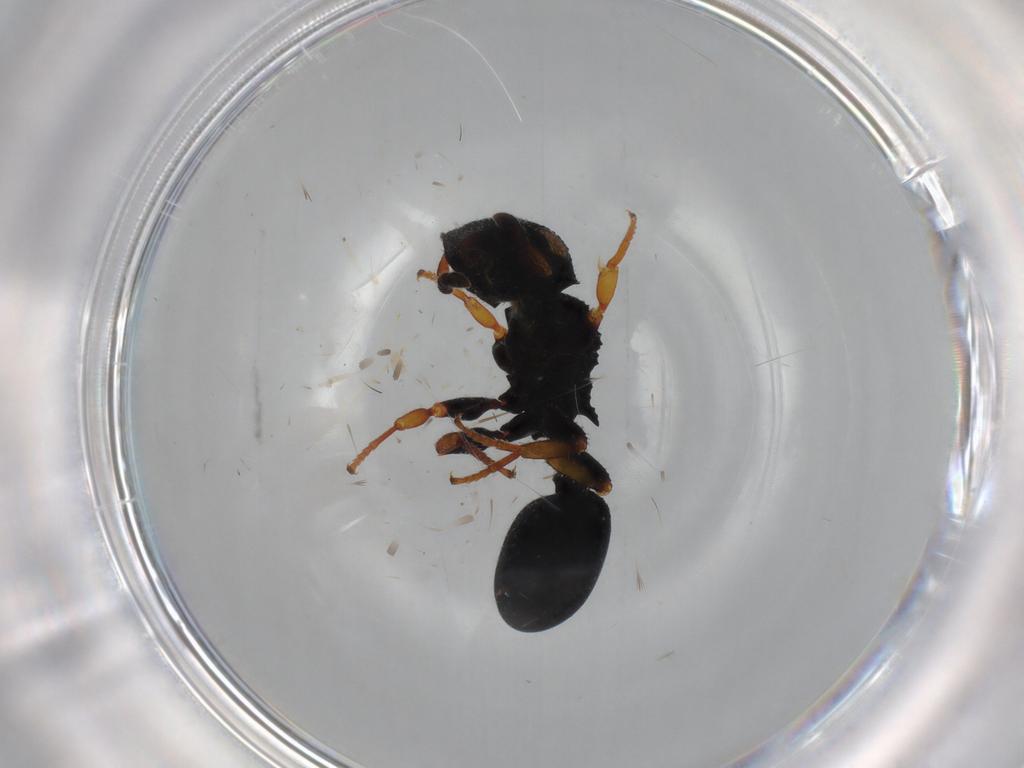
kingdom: Animalia
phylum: Arthropoda
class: Insecta
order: Hymenoptera
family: Formicidae
